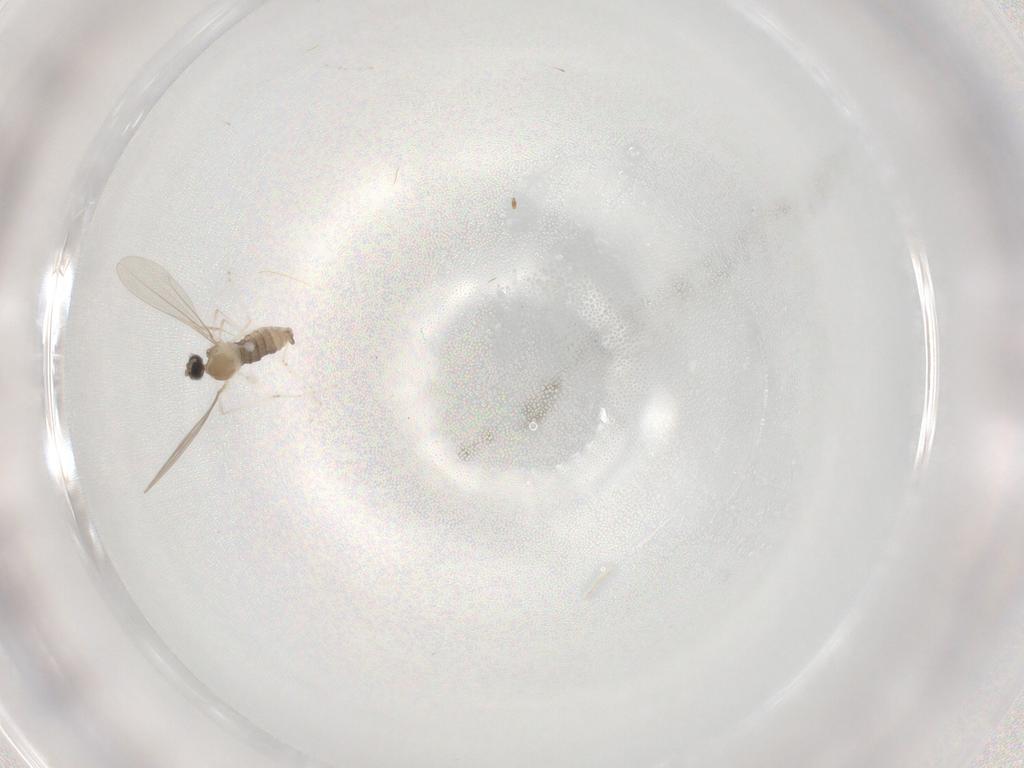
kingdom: Animalia
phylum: Arthropoda
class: Insecta
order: Diptera
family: Cecidomyiidae
